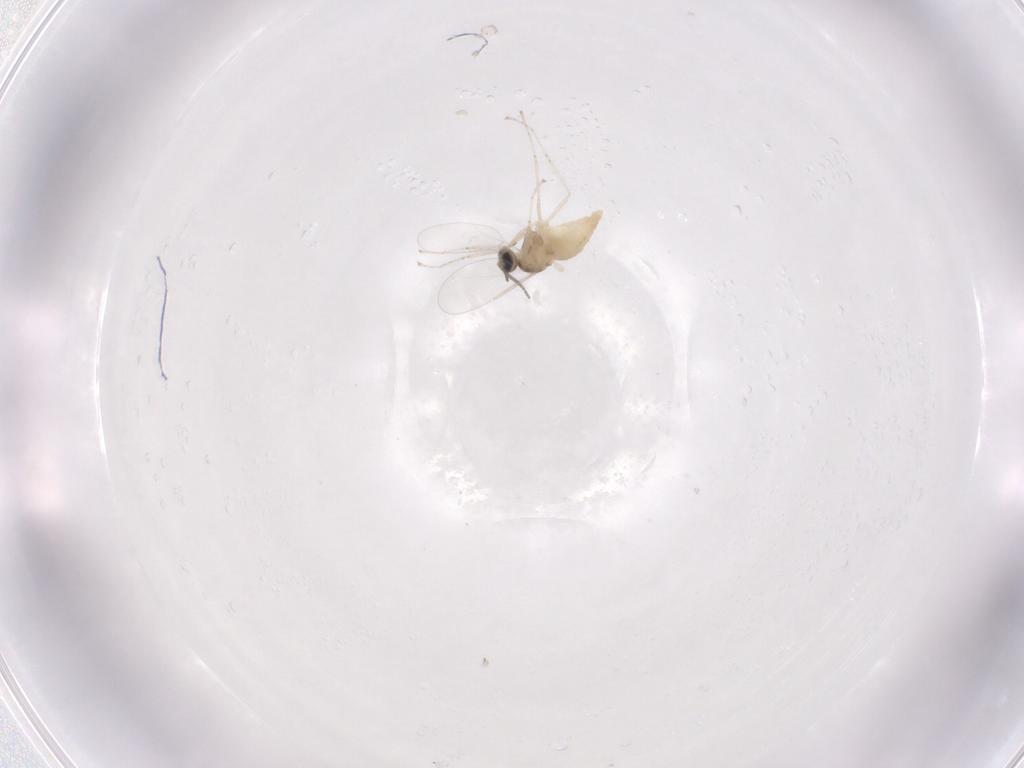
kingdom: Animalia
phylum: Arthropoda
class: Insecta
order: Diptera
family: Cecidomyiidae
